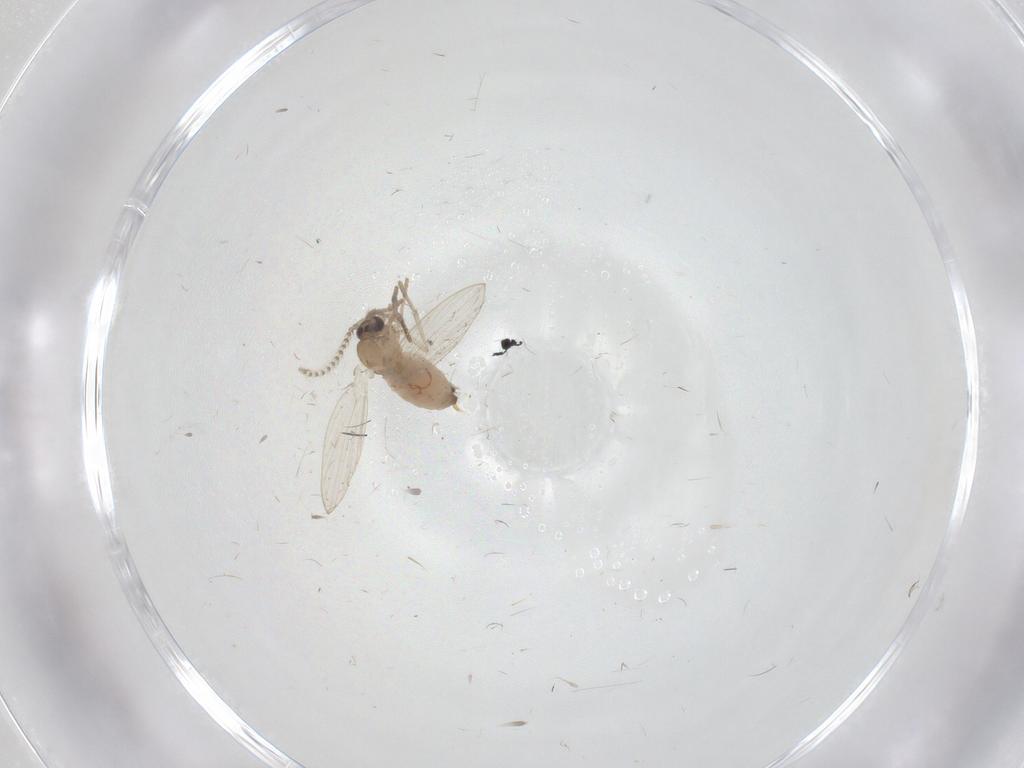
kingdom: Animalia
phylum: Arthropoda
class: Insecta
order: Diptera
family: Psychodidae
